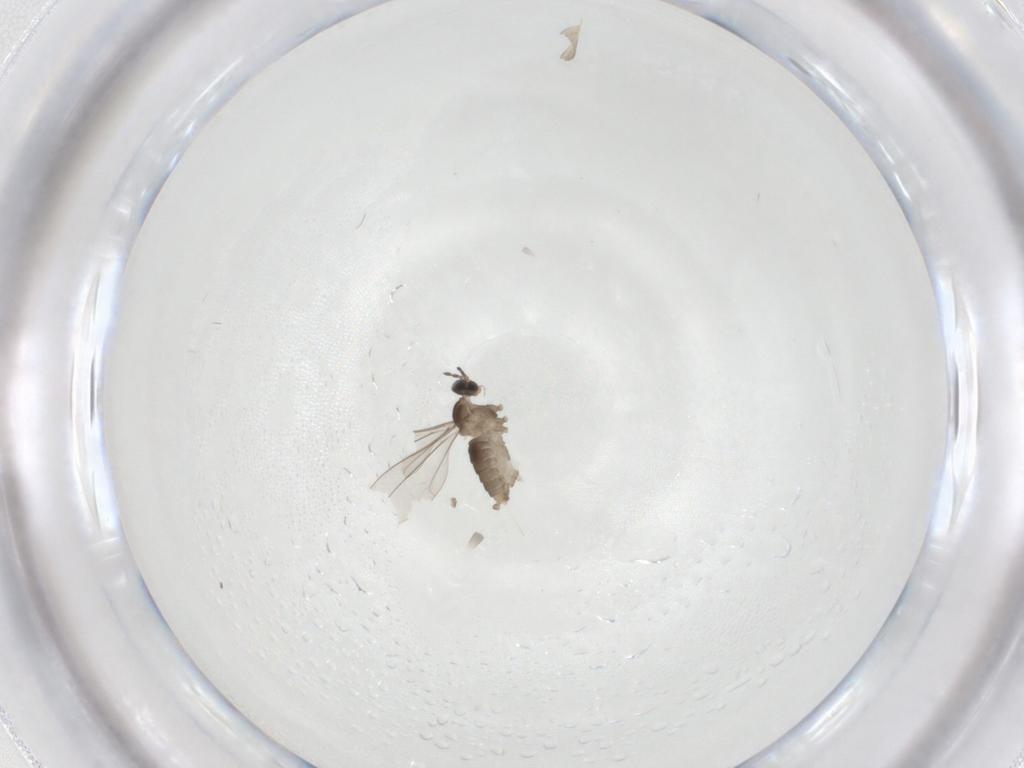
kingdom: Animalia
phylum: Arthropoda
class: Insecta
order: Diptera
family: Cecidomyiidae
